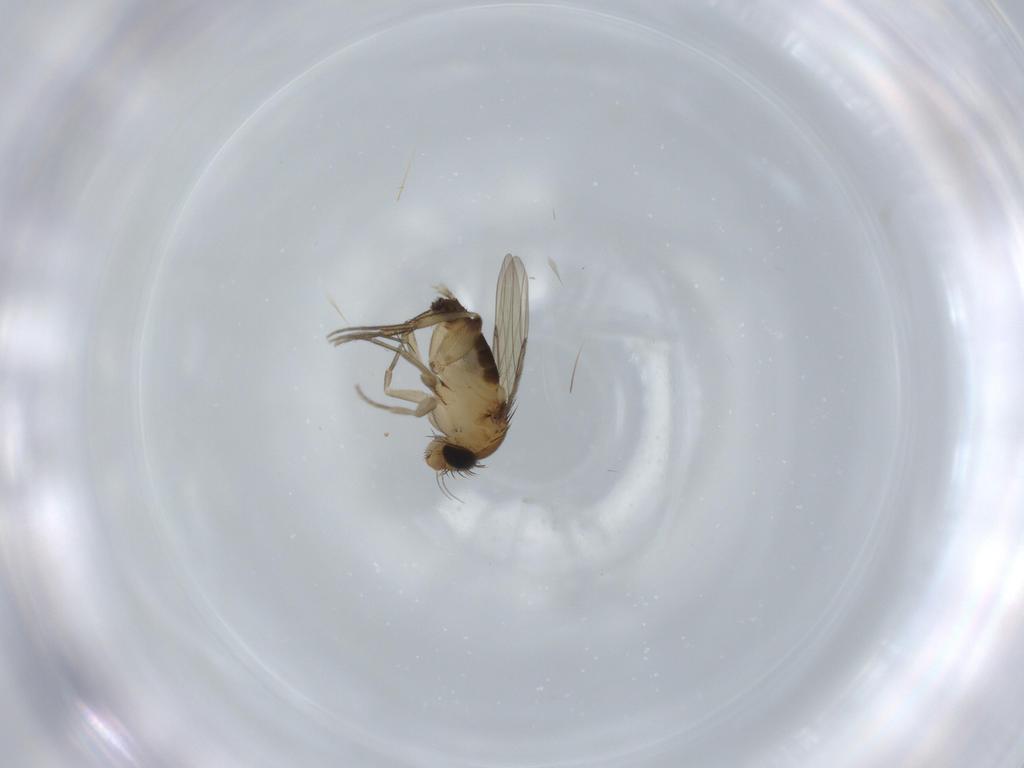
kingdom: Animalia
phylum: Arthropoda
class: Insecta
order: Diptera
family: Phoridae
